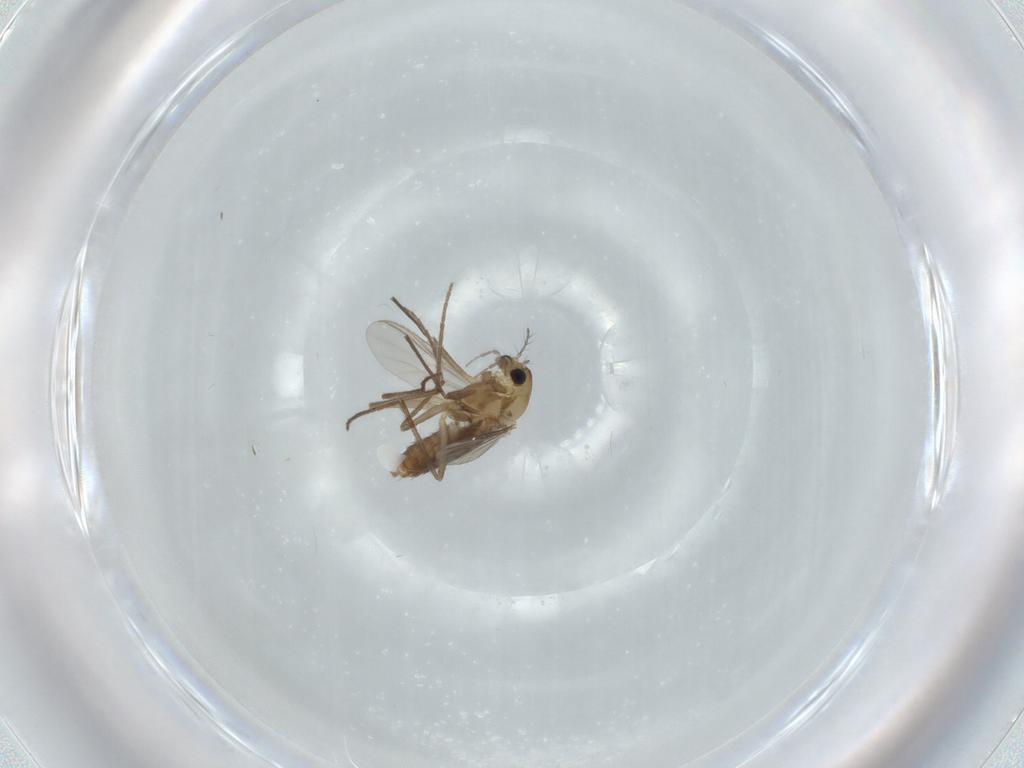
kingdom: Animalia
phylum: Arthropoda
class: Insecta
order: Diptera
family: Chironomidae
